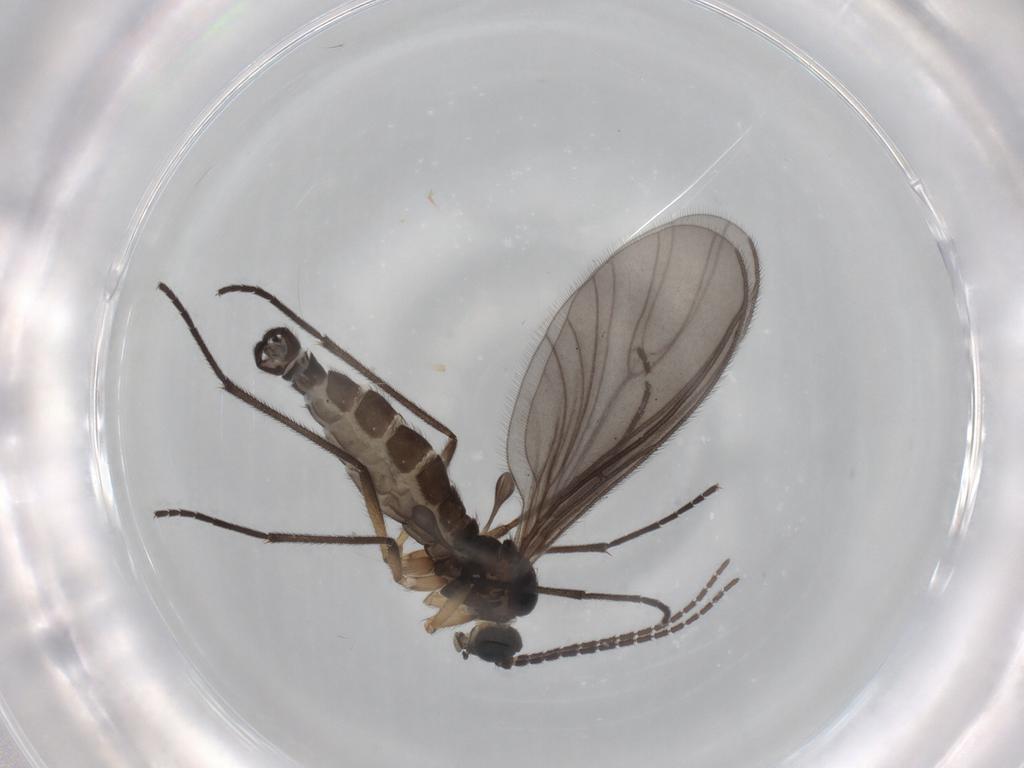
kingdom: Animalia
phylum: Arthropoda
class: Insecta
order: Diptera
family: Sciaridae
